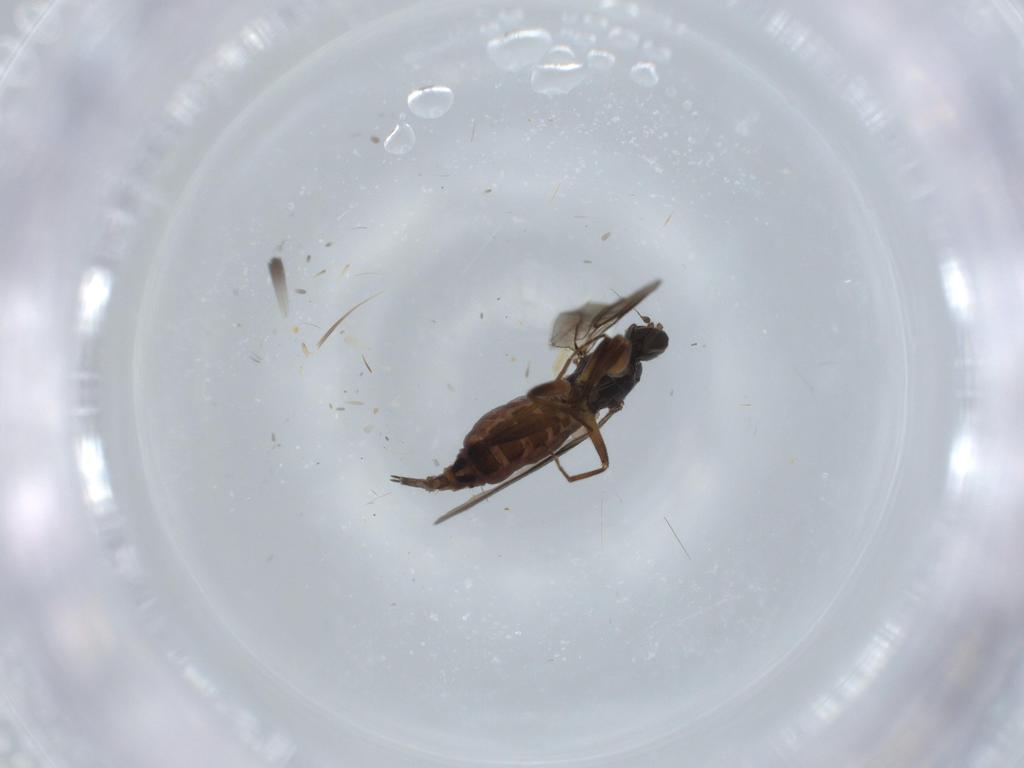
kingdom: Animalia
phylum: Arthropoda
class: Insecta
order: Diptera
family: Hybotidae
